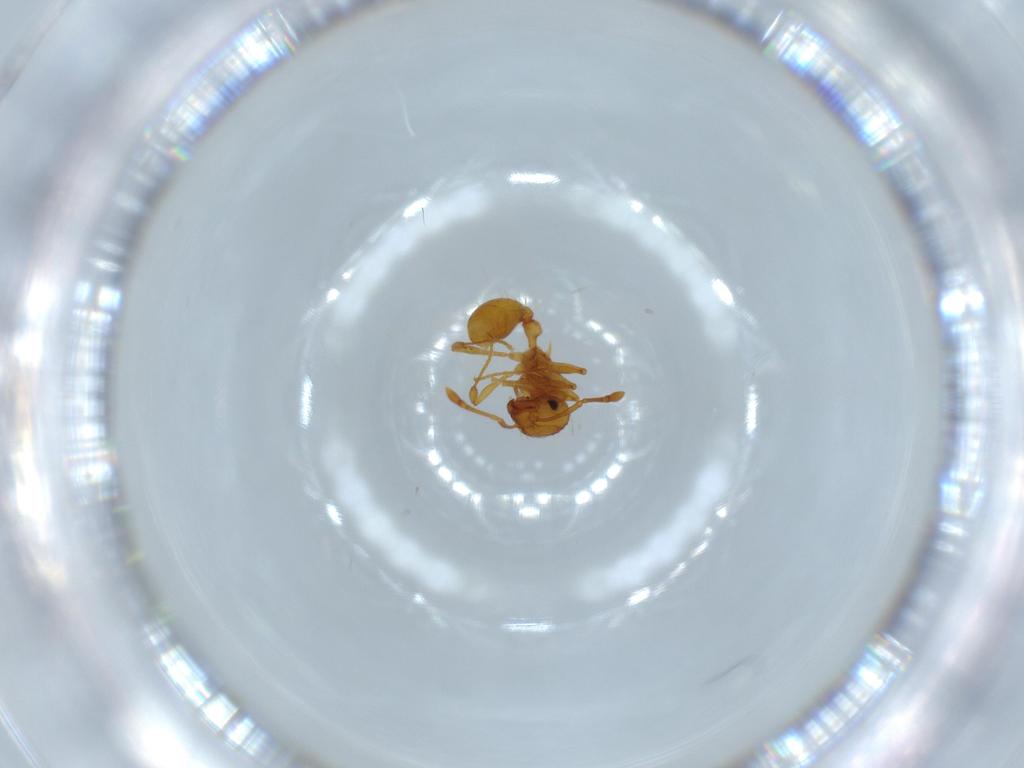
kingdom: Animalia
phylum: Arthropoda
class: Insecta
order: Hymenoptera
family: Formicidae
